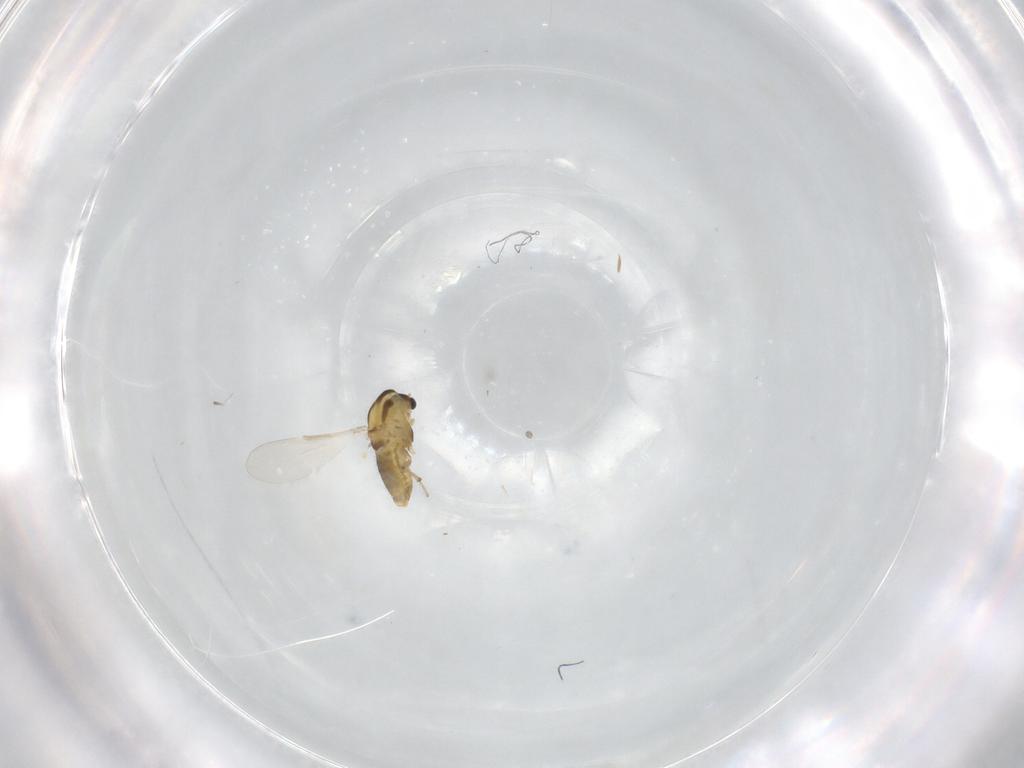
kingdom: Animalia
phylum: Arthropoda
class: Insecta
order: Diptera
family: Chironomidae
